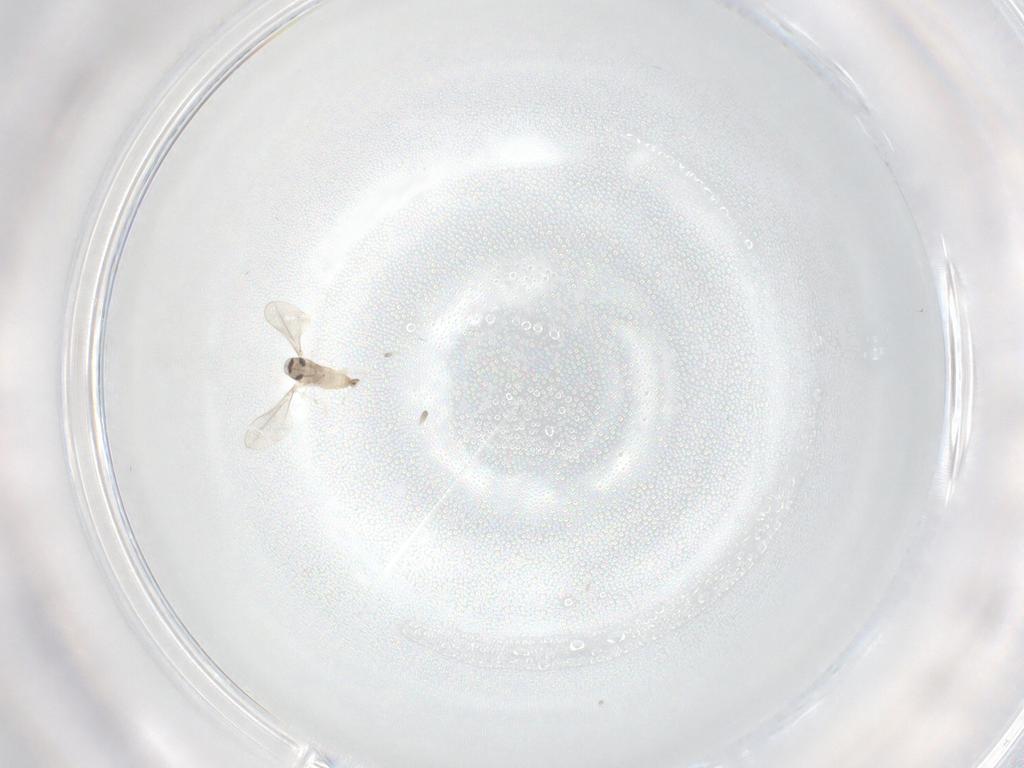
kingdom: Animalia
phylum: Arthropoda
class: Insecta
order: Diptera
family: Cecidomyiidae
